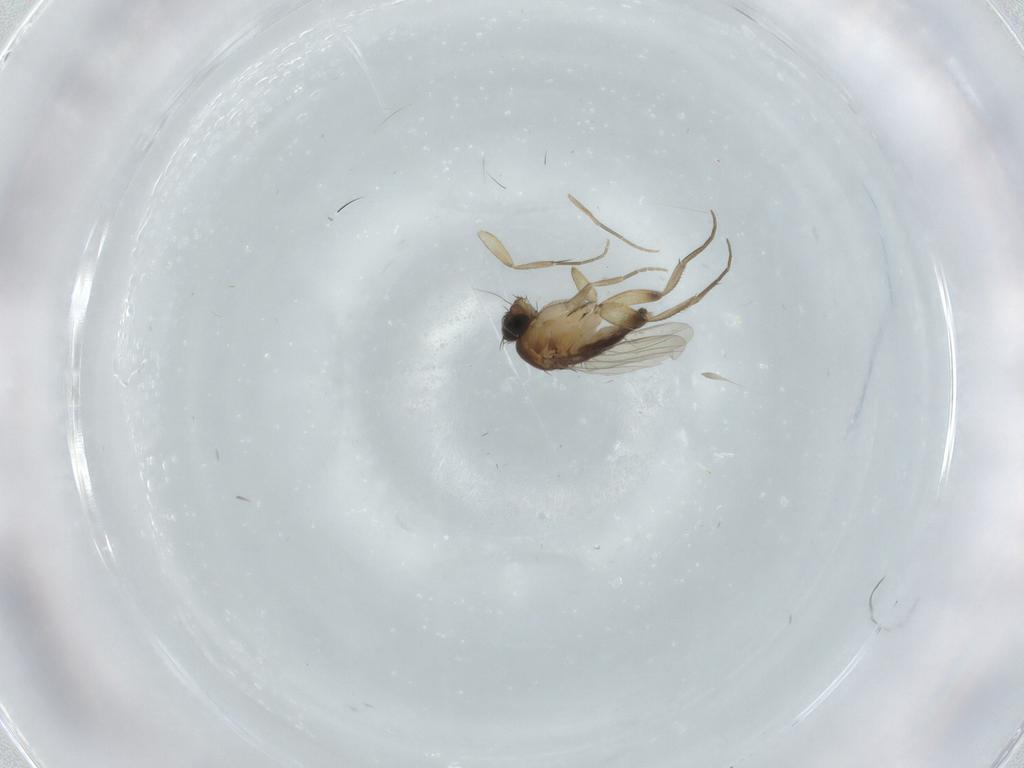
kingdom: Animalia
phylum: Arthropoda
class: Insecta
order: Diptera
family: Phoridae
